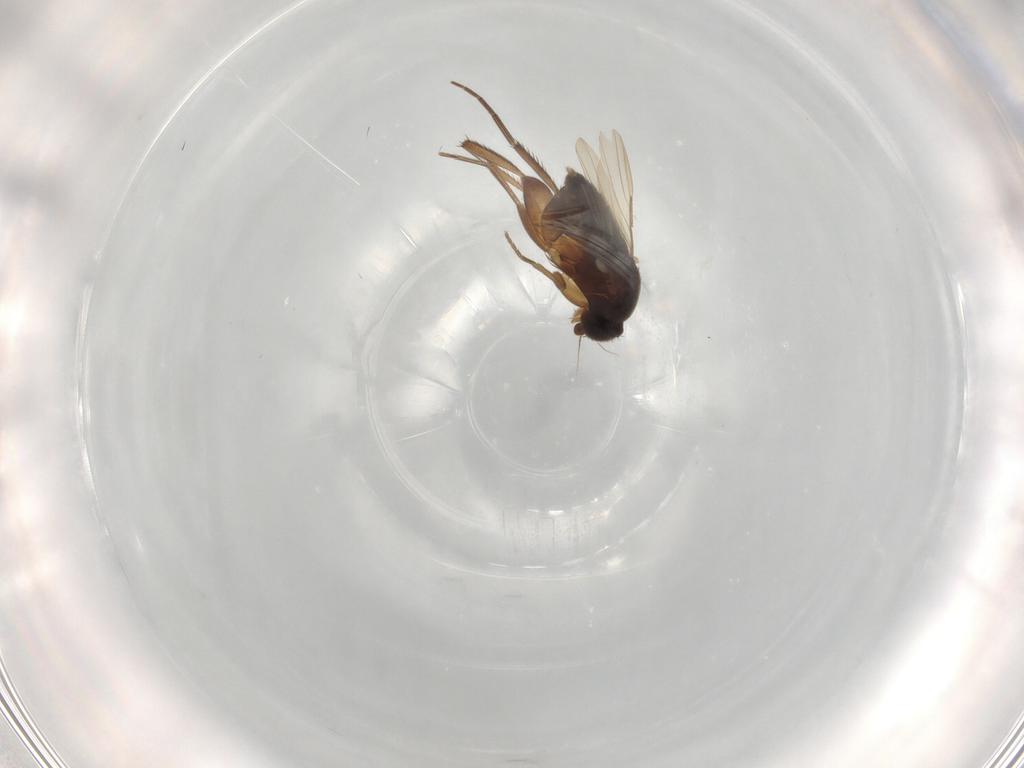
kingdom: Animalia
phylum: Arthropoda
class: Insecta
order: Diptera
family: Phoridae
